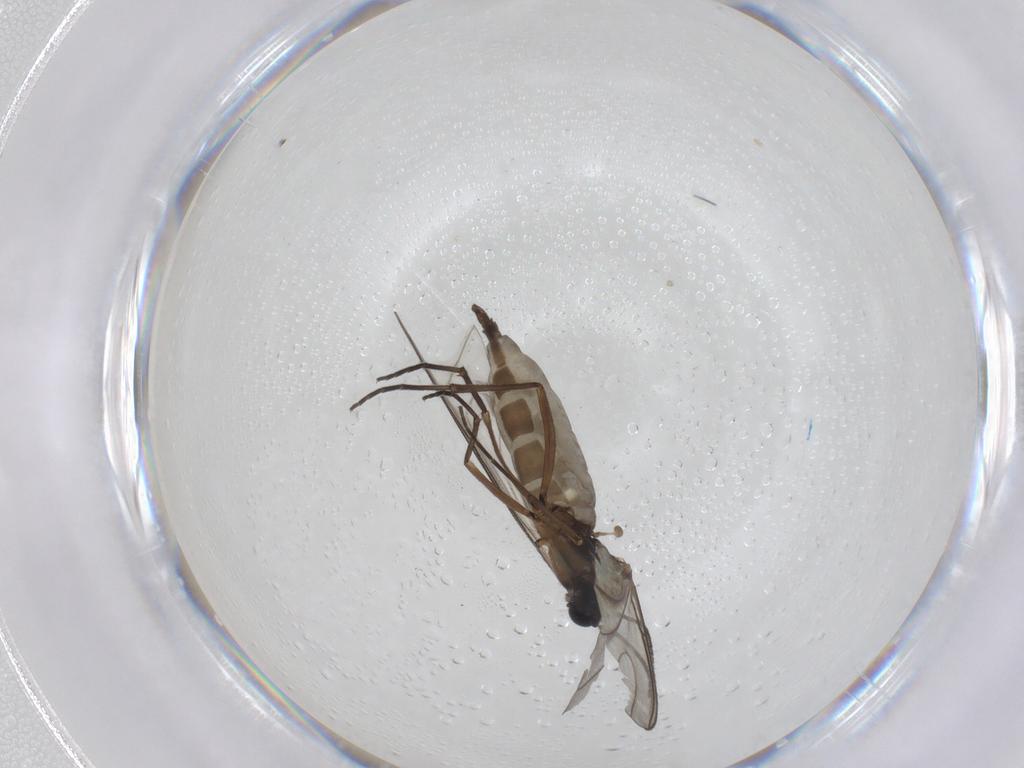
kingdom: Animalia
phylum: Arthropoda
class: Insecta
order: Diptera
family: Sciaridae
